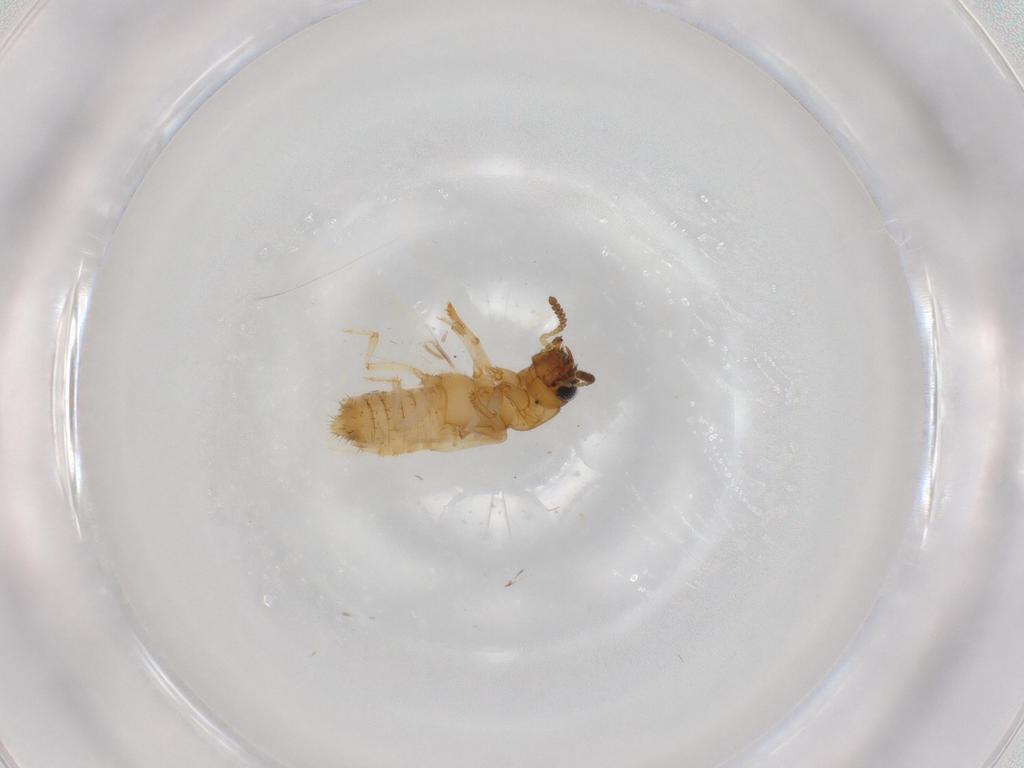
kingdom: Animalia
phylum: Arthropoda
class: Insecta
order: Coleoptera
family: Staphylinidae
